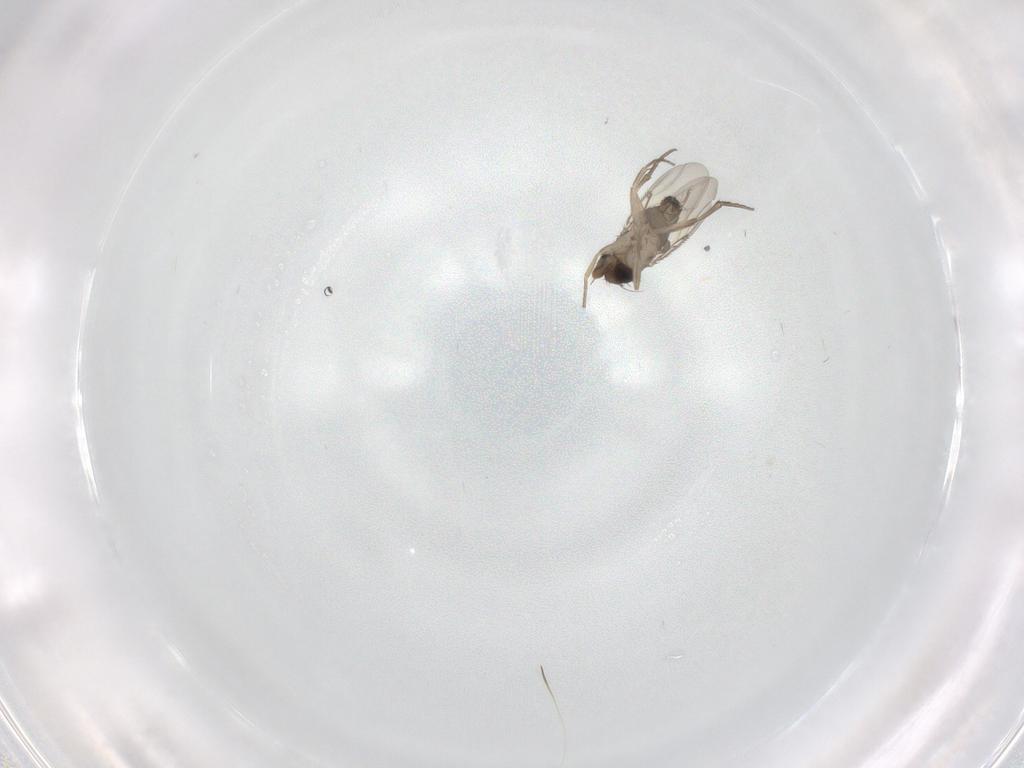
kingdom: Animalia
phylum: Arthropoda
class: Insecta
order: Diptera
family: Phoridae
